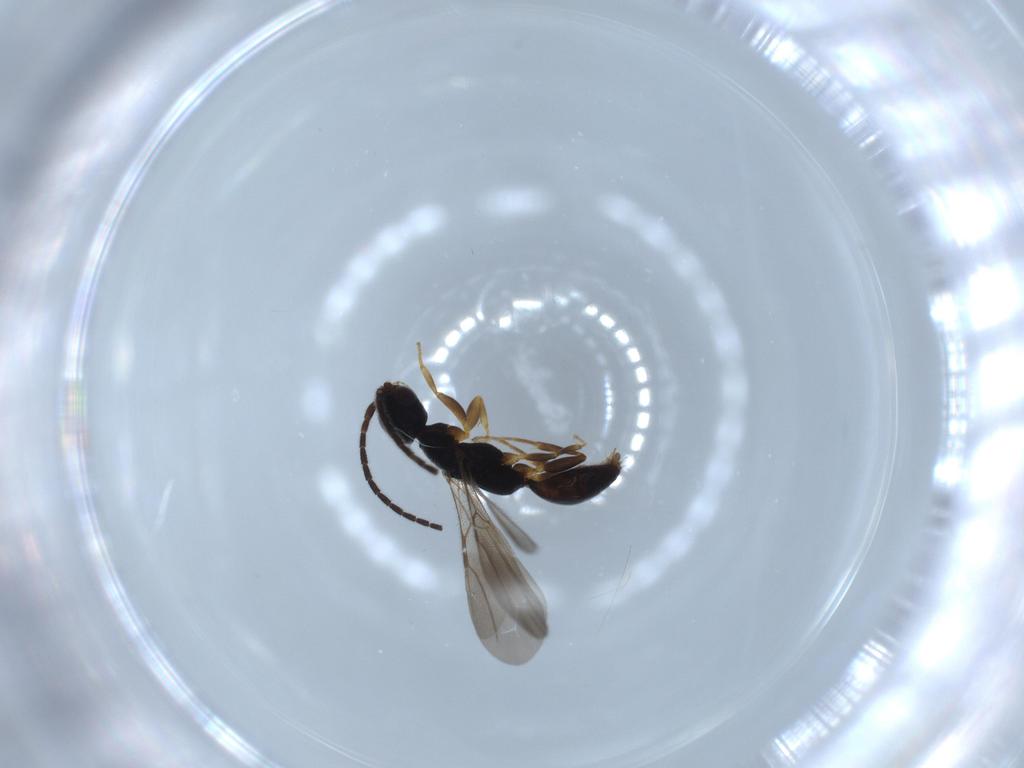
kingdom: Animalia
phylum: Arthropoda
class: Insecta
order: Hymenoptera
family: Bethylidae
